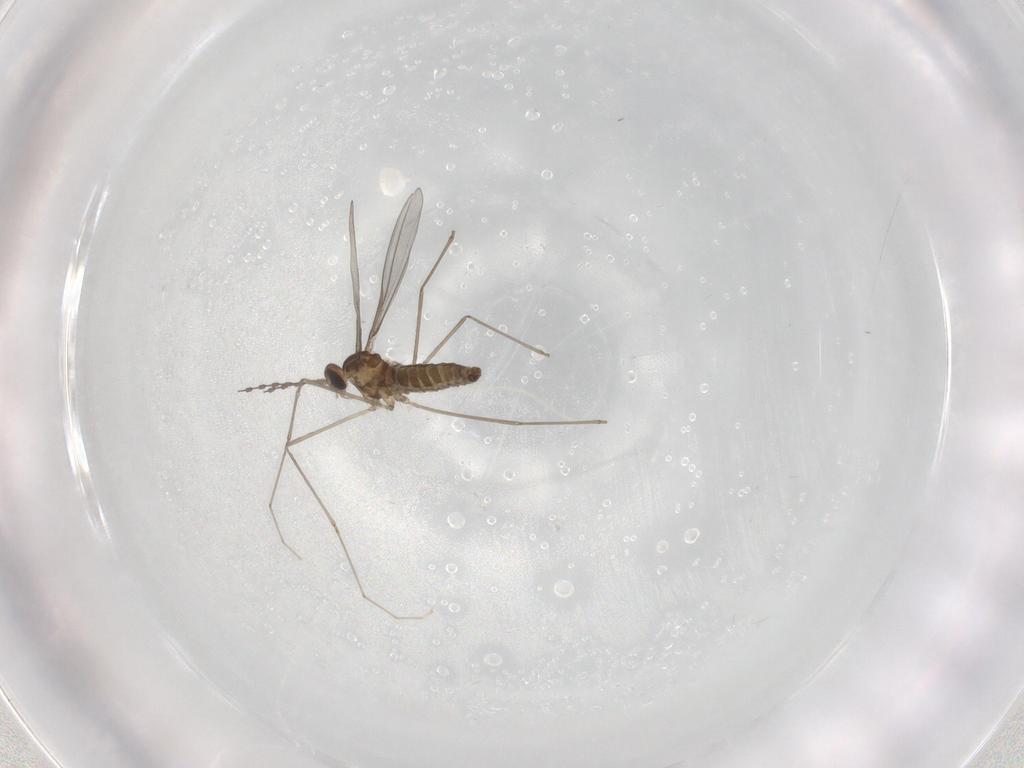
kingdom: Animalia
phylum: Arthropoda
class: Insecta
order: Diptera
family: Cecidomyiidae
